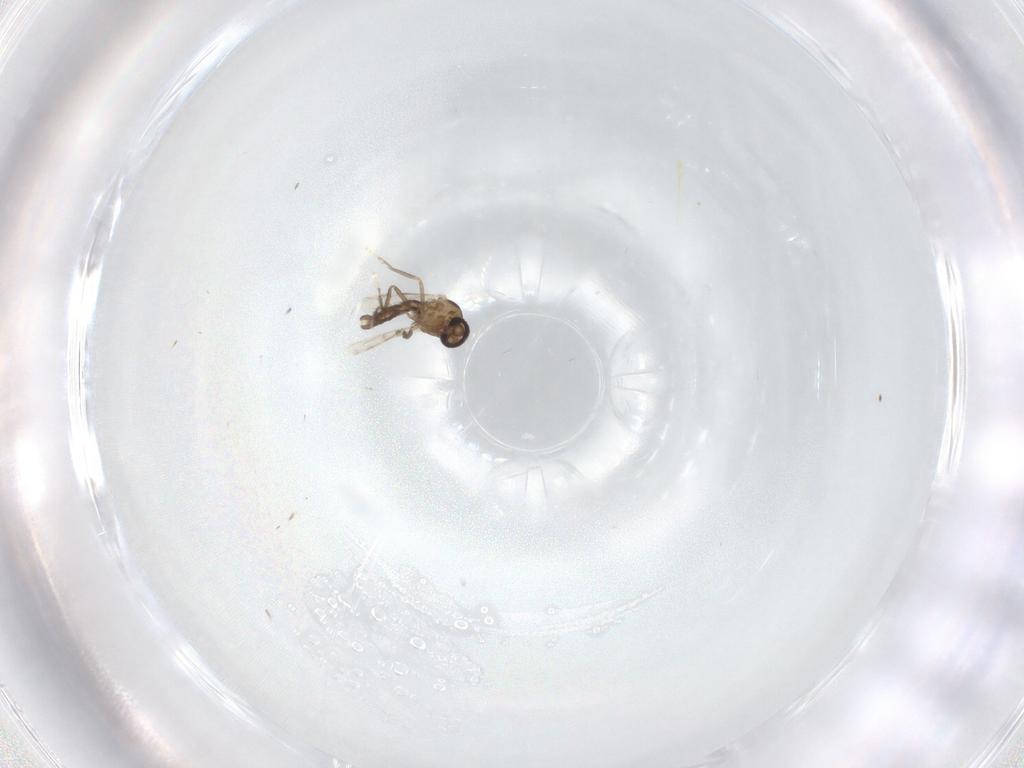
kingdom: Animalia
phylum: Arthropoda
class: Insecta
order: Diptera
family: Ceratopogonidae
